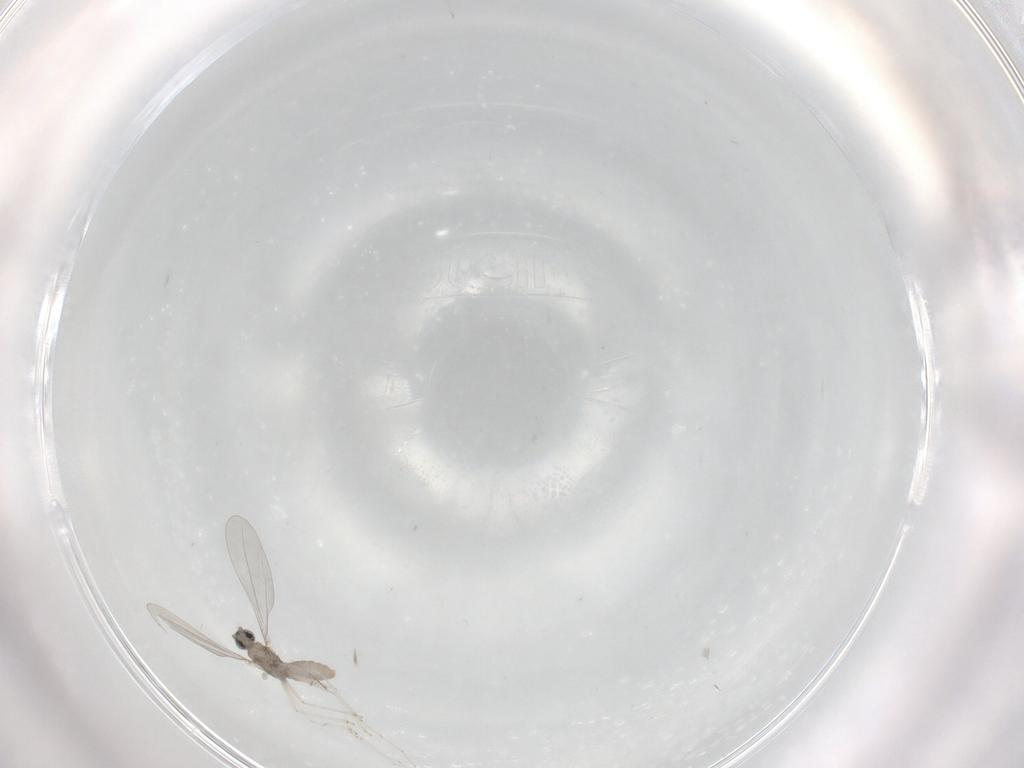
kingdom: Animalia
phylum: Arthropoda
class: Insecta
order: Diptera
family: Cecidomyiidae
